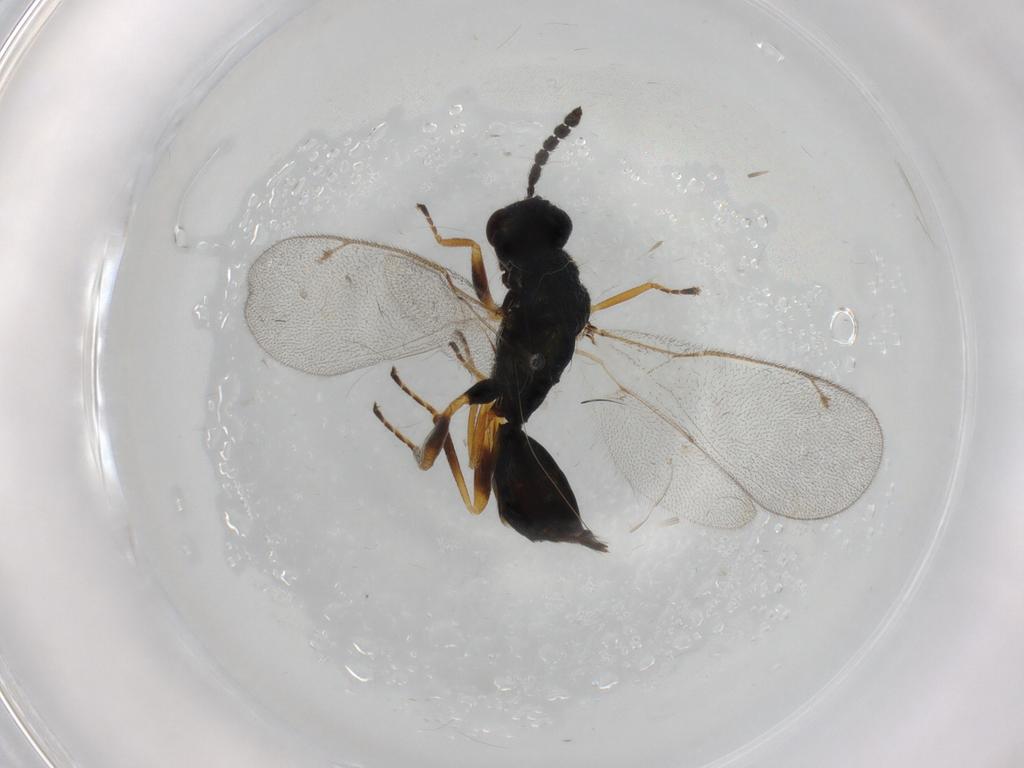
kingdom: Animalia
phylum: Arthropoda
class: Insecta
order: Hymenoptera
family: Eulophidae
